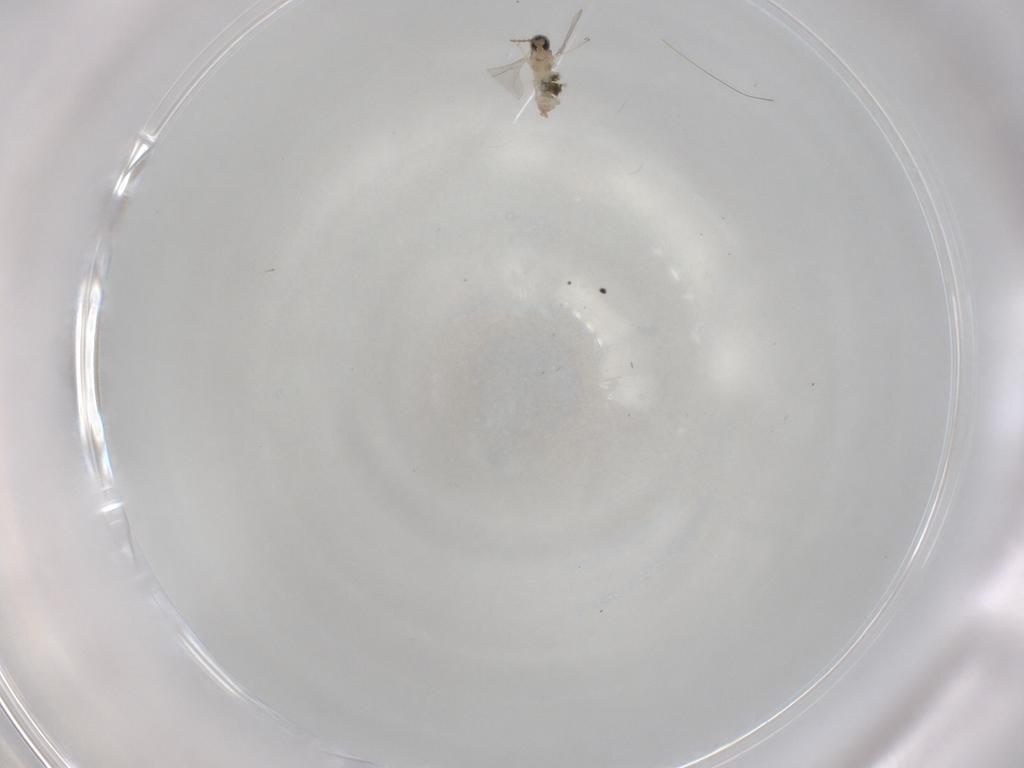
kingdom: Animalia
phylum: Arthropoda
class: Insecta
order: Diptera
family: Cecidomyiidae
